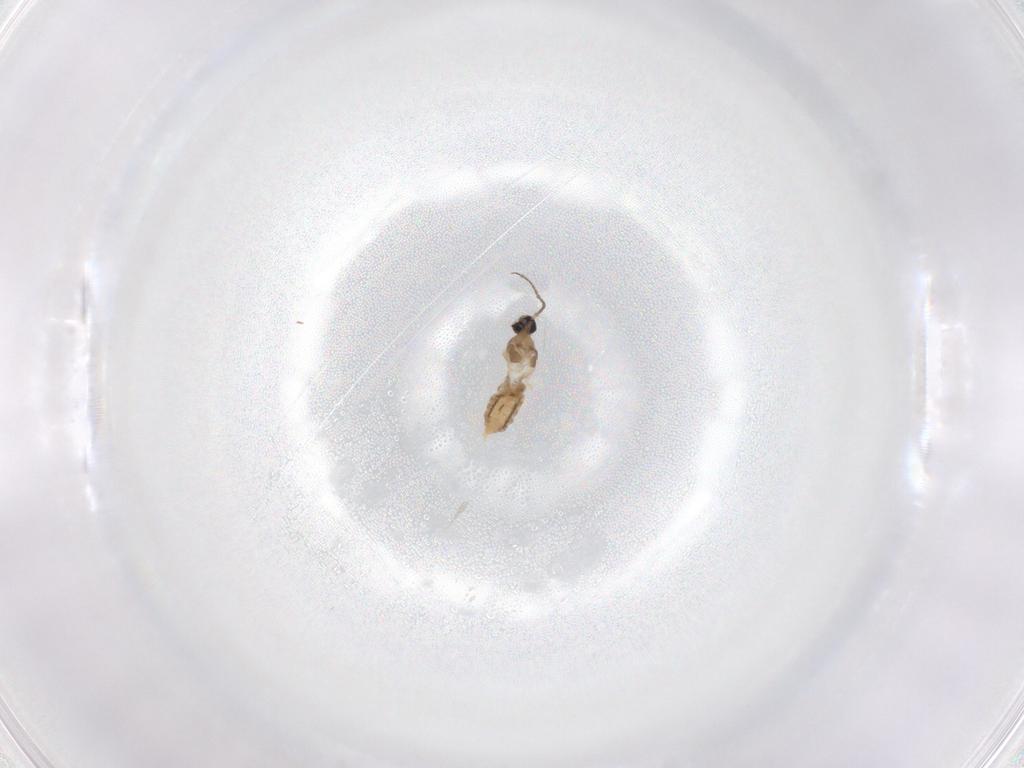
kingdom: Animalia
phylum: Arthropoda
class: Insecta
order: Diptera
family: Cecidomyiidae
